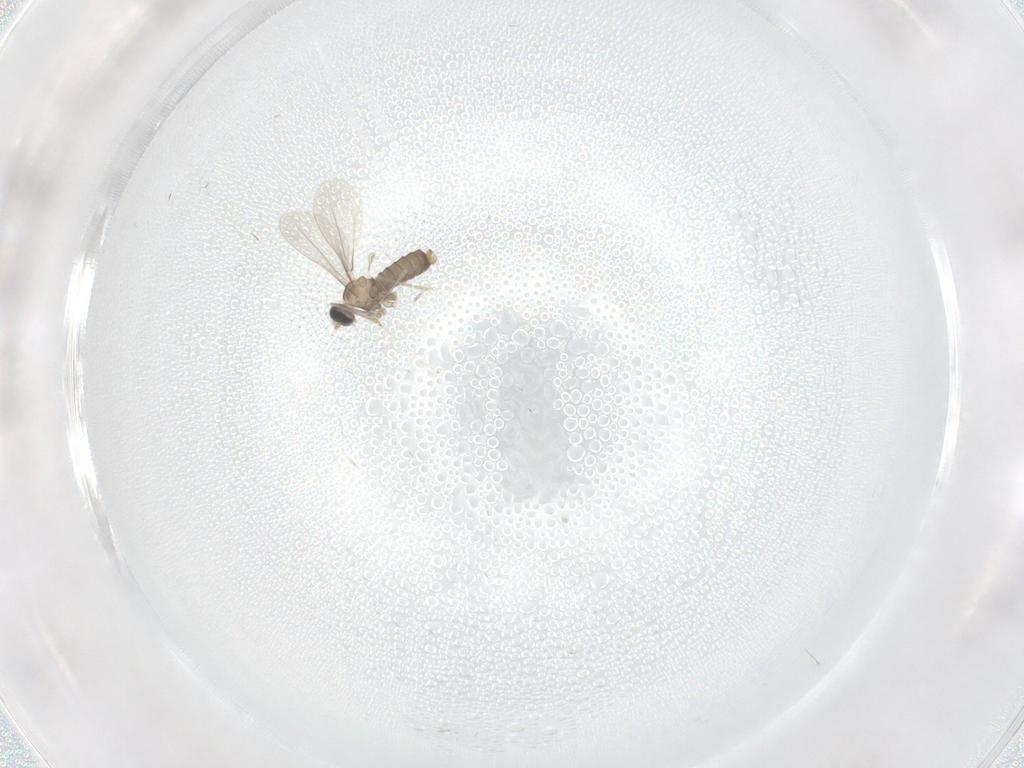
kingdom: Animalia
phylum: Arthropoda
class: Insecta
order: Diptera
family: Cecidomyiidae
